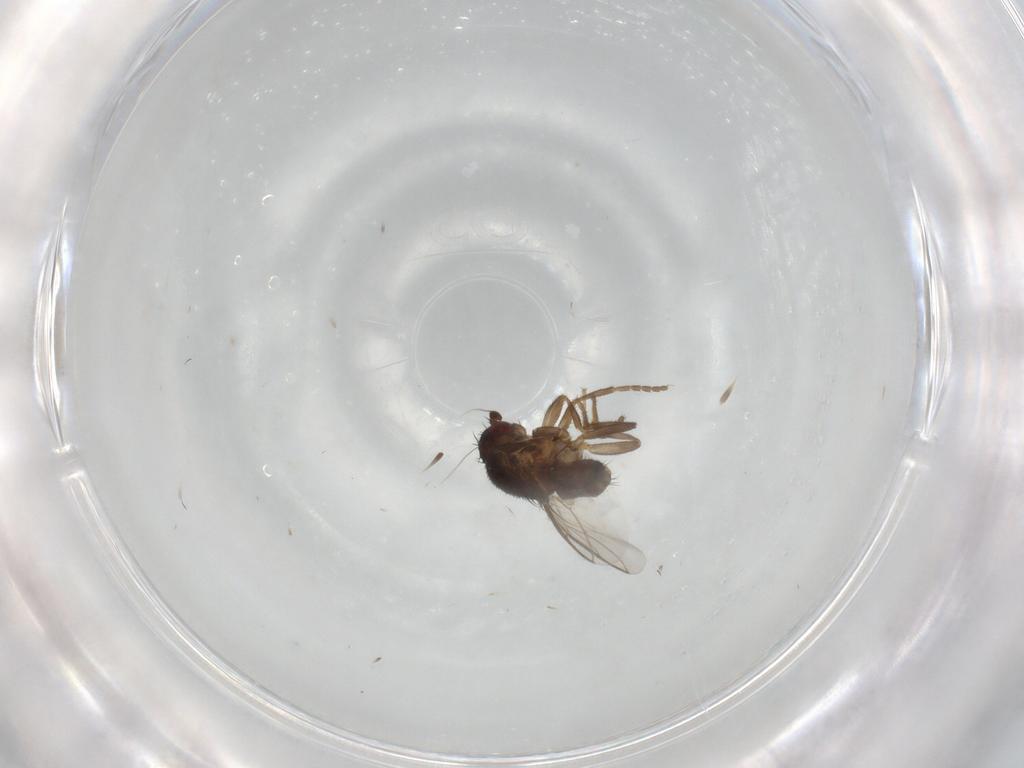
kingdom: Animalia
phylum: Arthropoda
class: Insecta
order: Diptera
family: Sphaeroceridae
